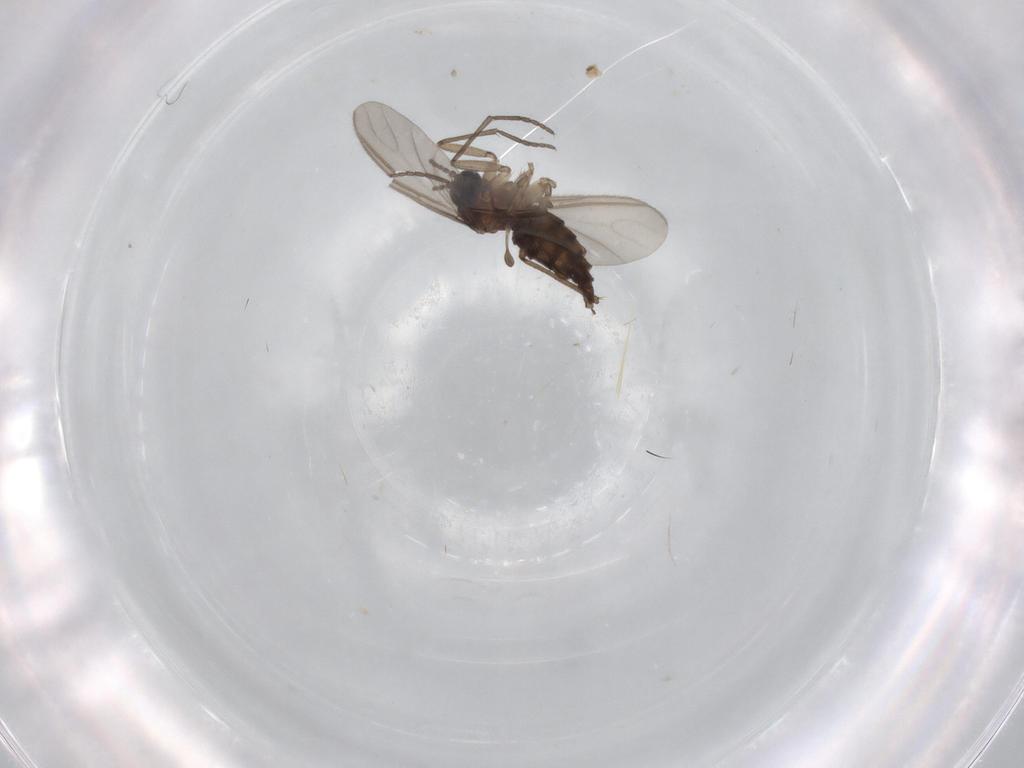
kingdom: Animalia
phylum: Arthropoda
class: Insecta
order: Diptera
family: Sciaridae
